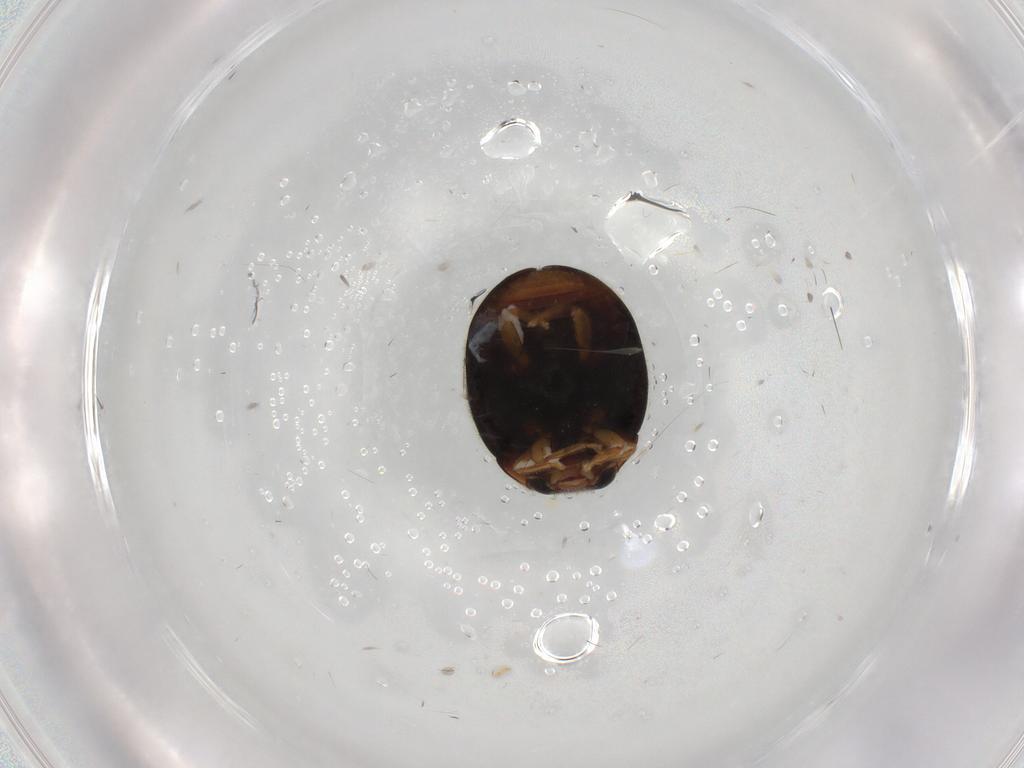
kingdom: Animalia
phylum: Arthropoda
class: Insecta
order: Coleoptera
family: Coccinellidae
